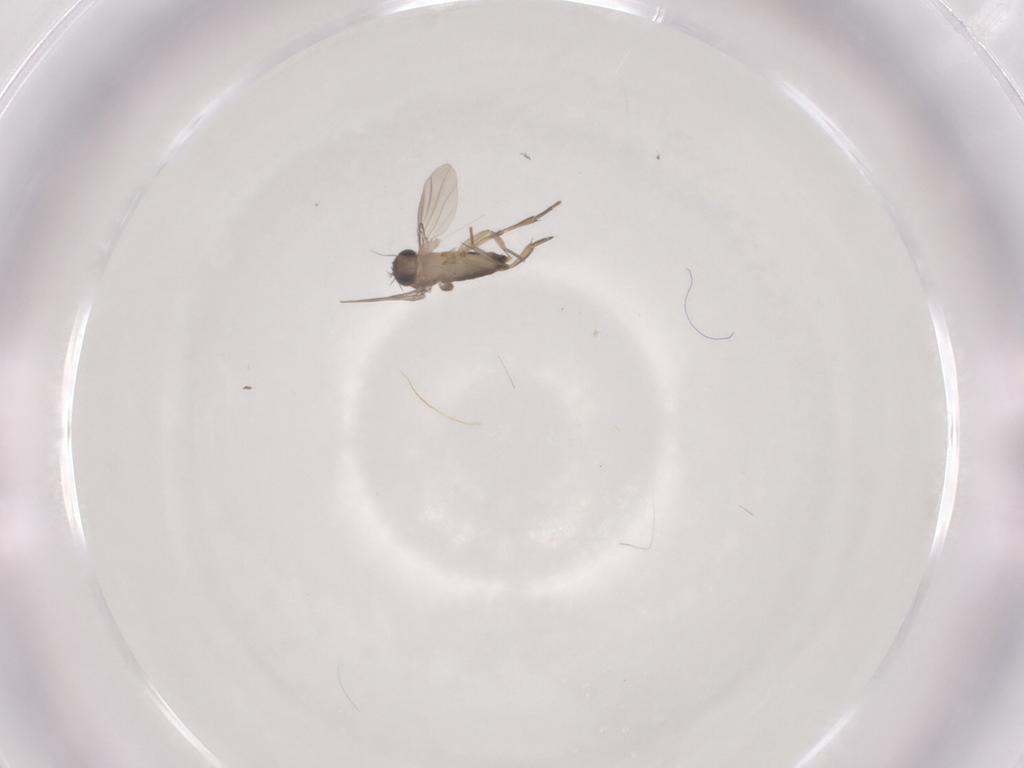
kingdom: Animalia
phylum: Arthropoda
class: Insecta
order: Diptera
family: Phoridae
